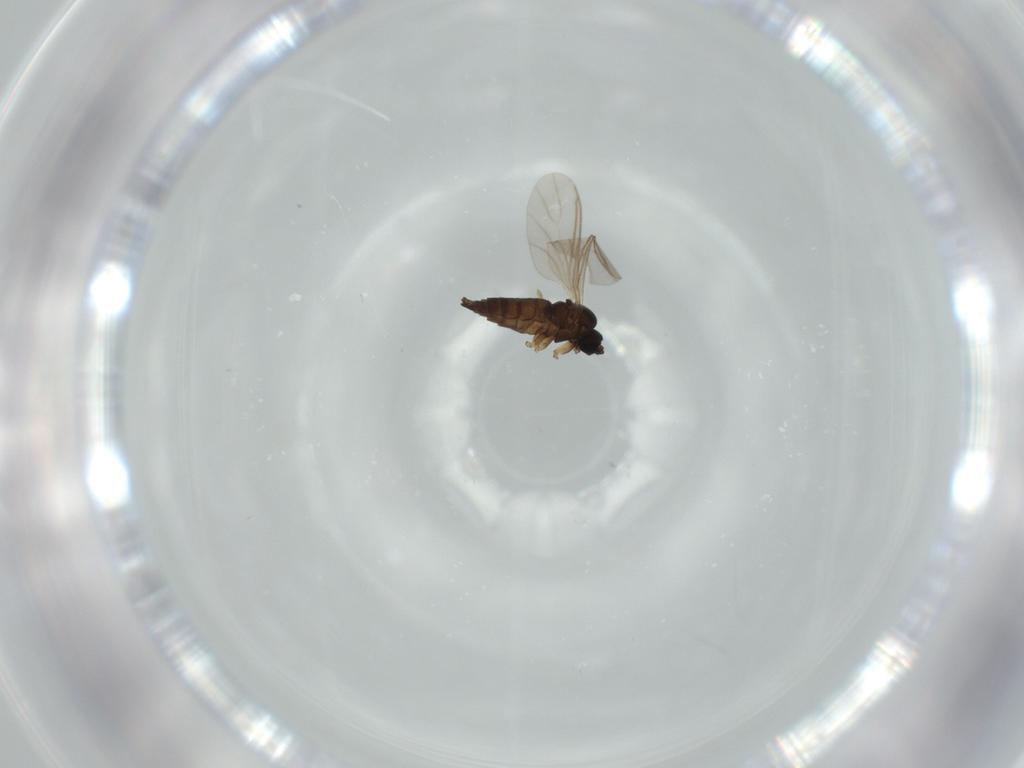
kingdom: Animalia
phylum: Arthropoda
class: Insecta
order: Diptera
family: Sciaridae
